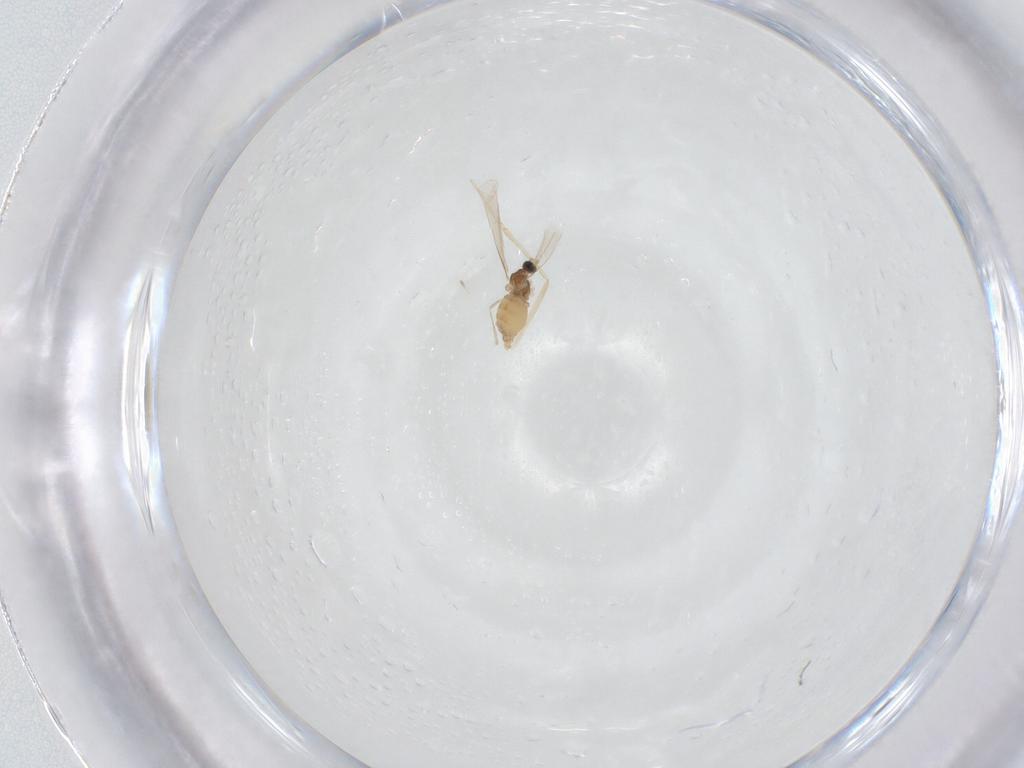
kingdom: Animalia
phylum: Arthropoda
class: Insecta
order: Diptera
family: Cecidomyiidae
